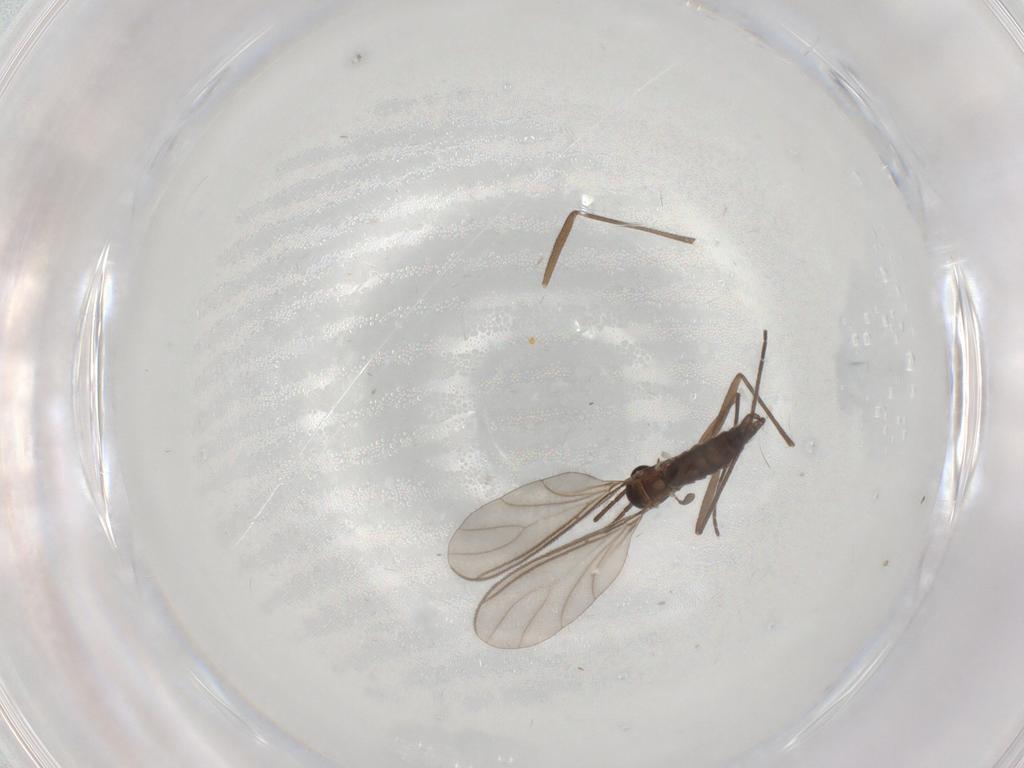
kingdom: Animalia
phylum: Arthropoda
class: Insecta
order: Diptera
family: Sciaridae
